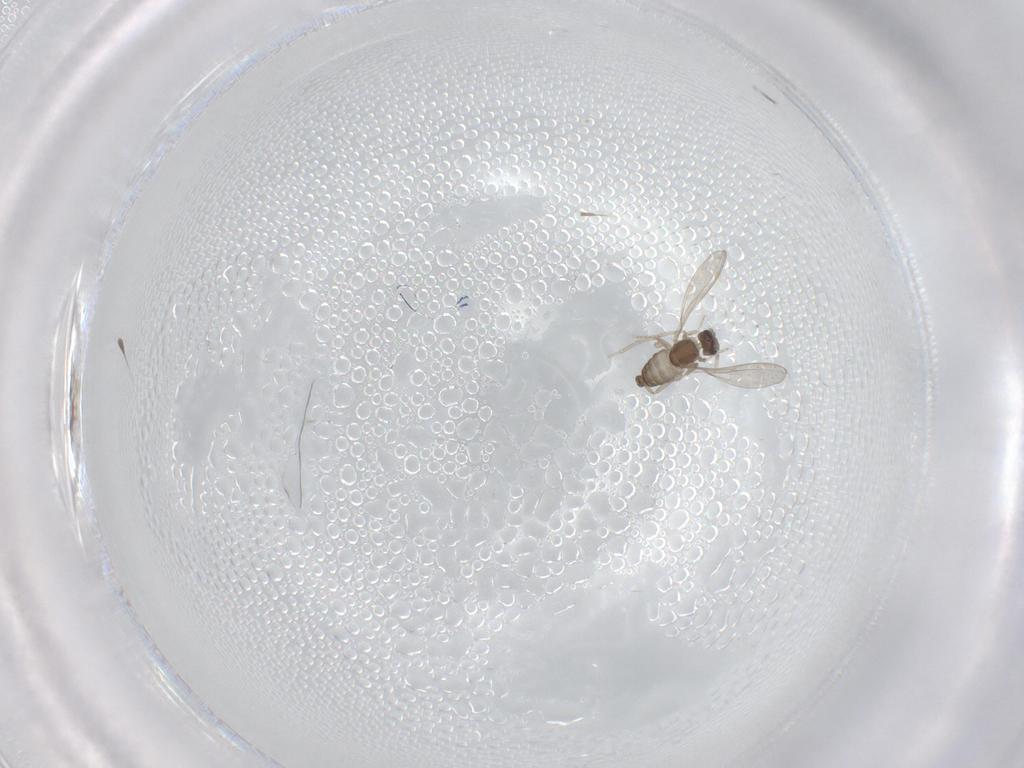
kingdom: Animalia
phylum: Arthropoda
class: Insecta
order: Diptera
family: Cecidomyiidae
